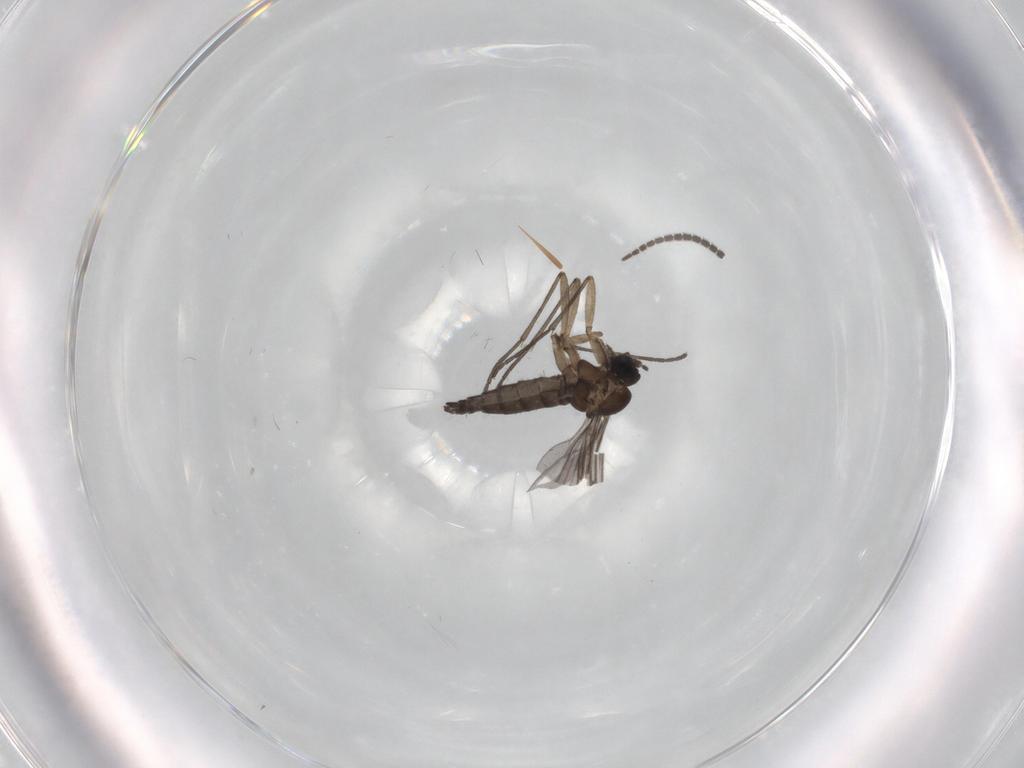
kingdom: Animalia
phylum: Arthropoda
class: Insecta
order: Diptera
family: Sciaridae
